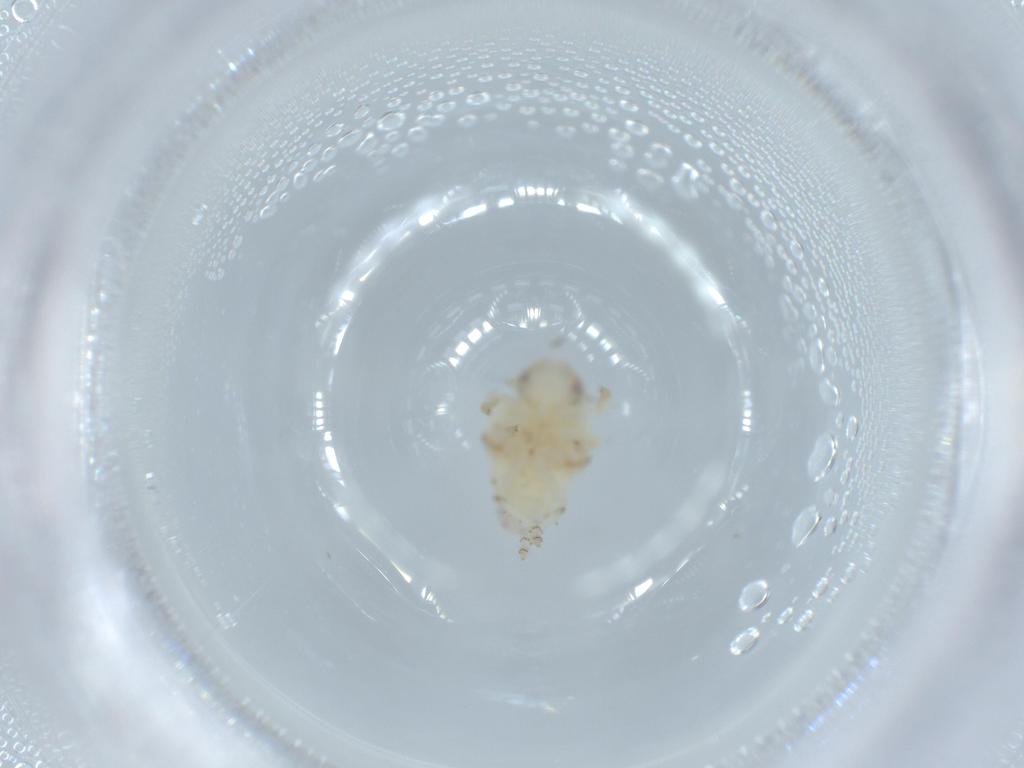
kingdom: Animalia
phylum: Arthropoda
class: Insecta
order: Hemiptera
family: Nogodinidae
